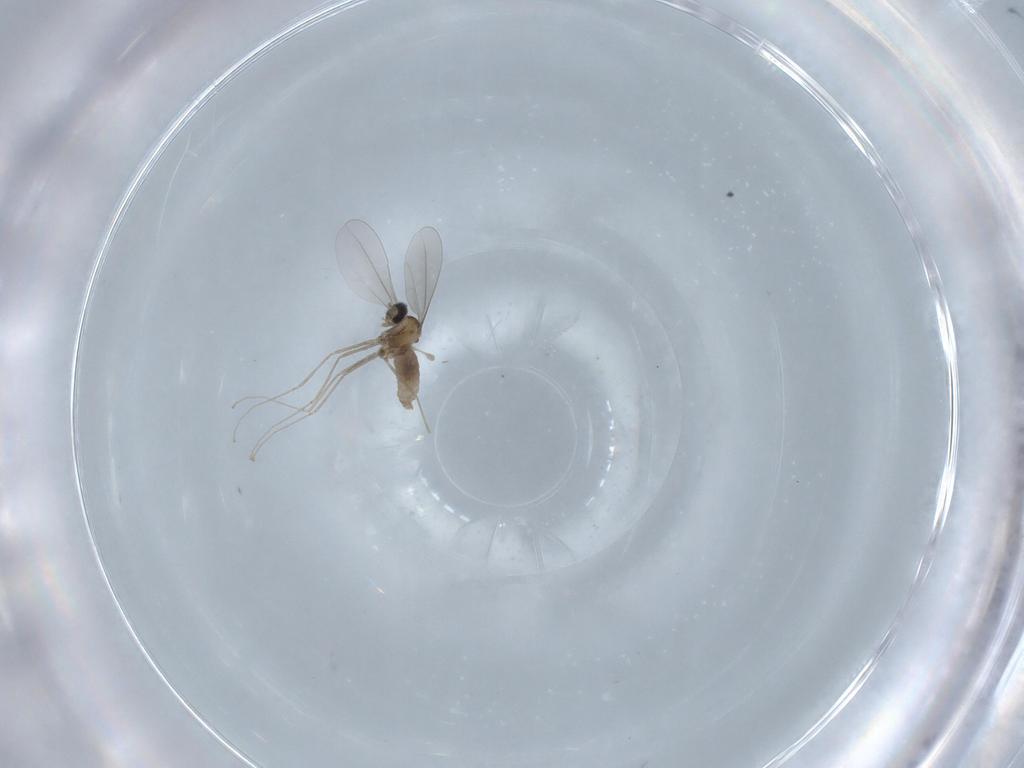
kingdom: Animalia
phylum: Arthropoda
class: Insecta
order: Diptera
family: Cecidomyiidae
